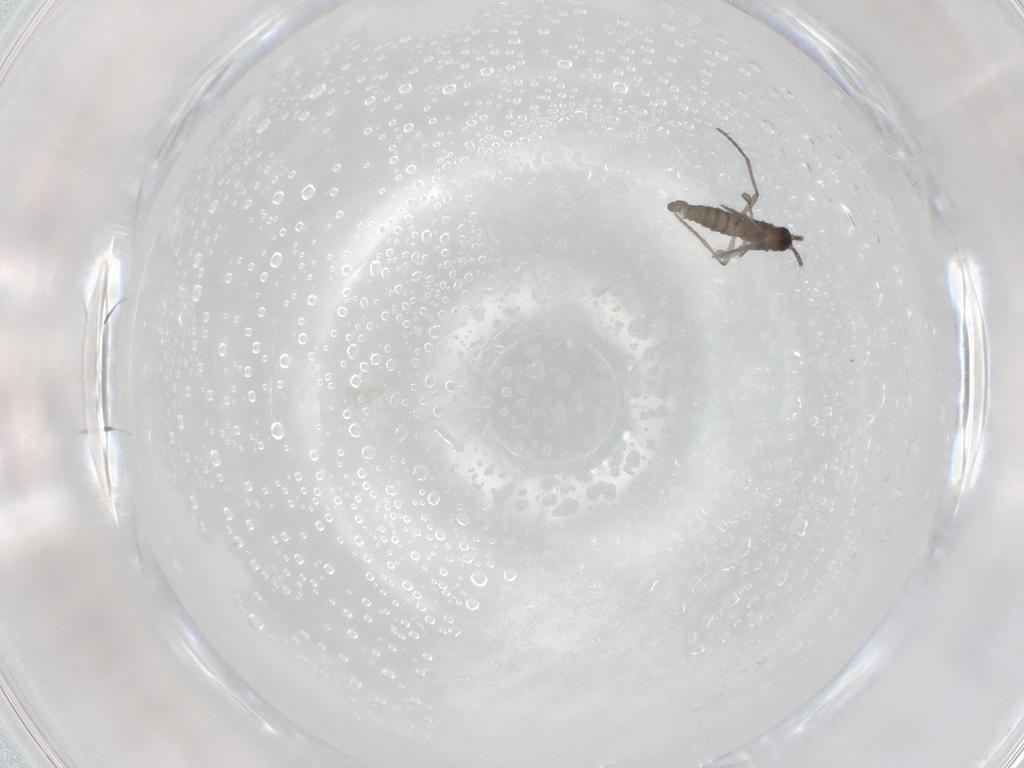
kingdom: Animalia
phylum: Arthropoda
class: Insecta
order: Diptera
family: Sciaridae
